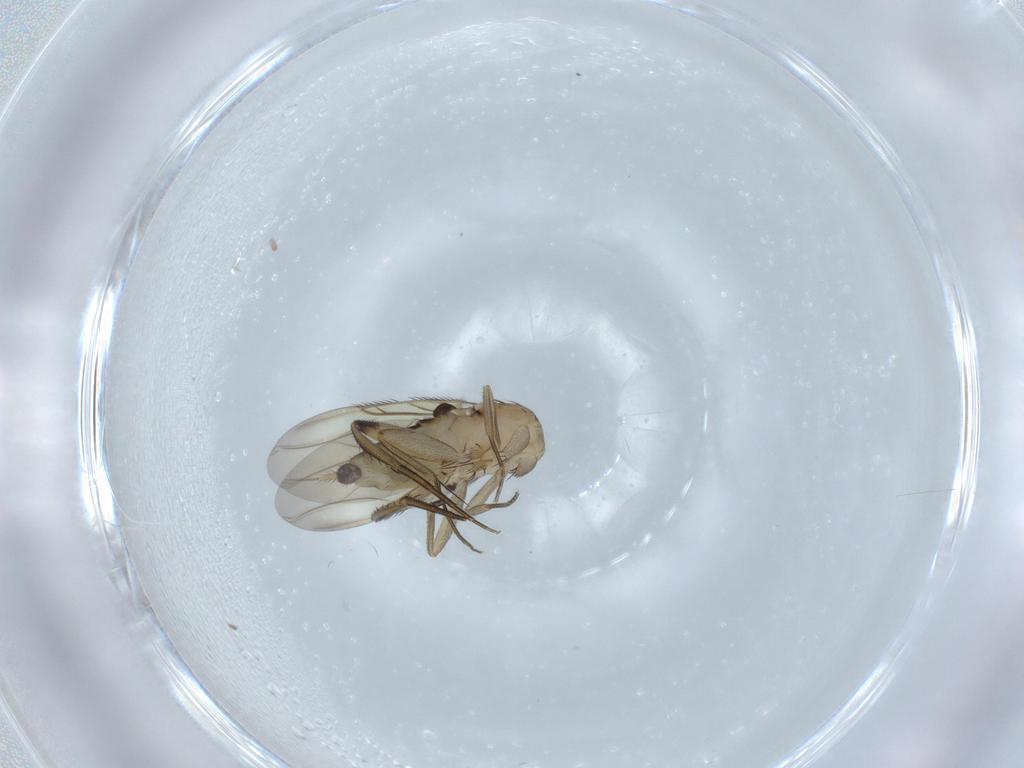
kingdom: Animalia
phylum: Arthropoda
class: Insecta
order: Diptera
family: Phoridae
